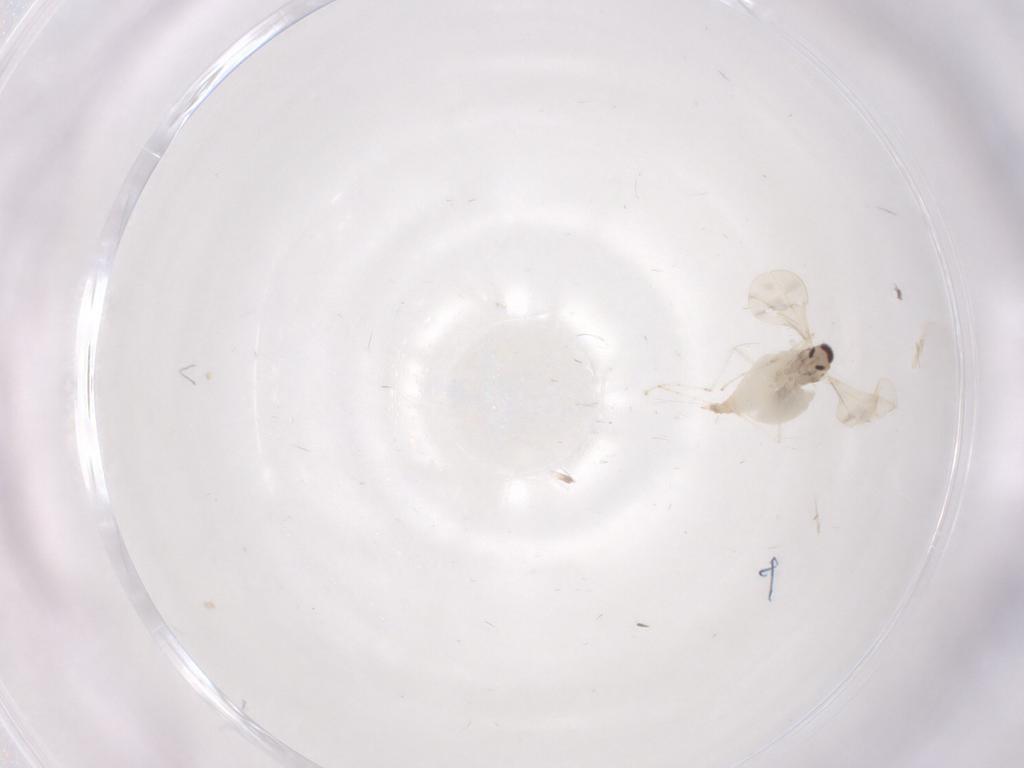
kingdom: Animalia
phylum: Arthropoda
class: Insecta
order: Diptera
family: Cecidomyiidae
